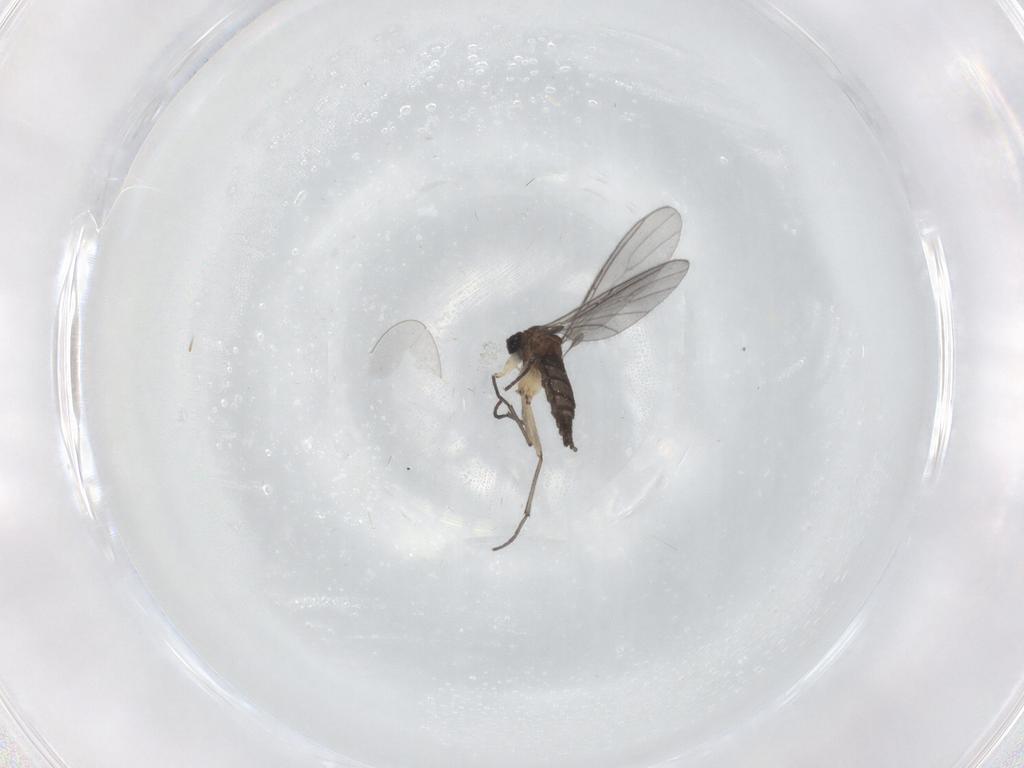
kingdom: Animalia
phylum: Arthropoda
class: Insecta
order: Diptera
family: Sciaridae
